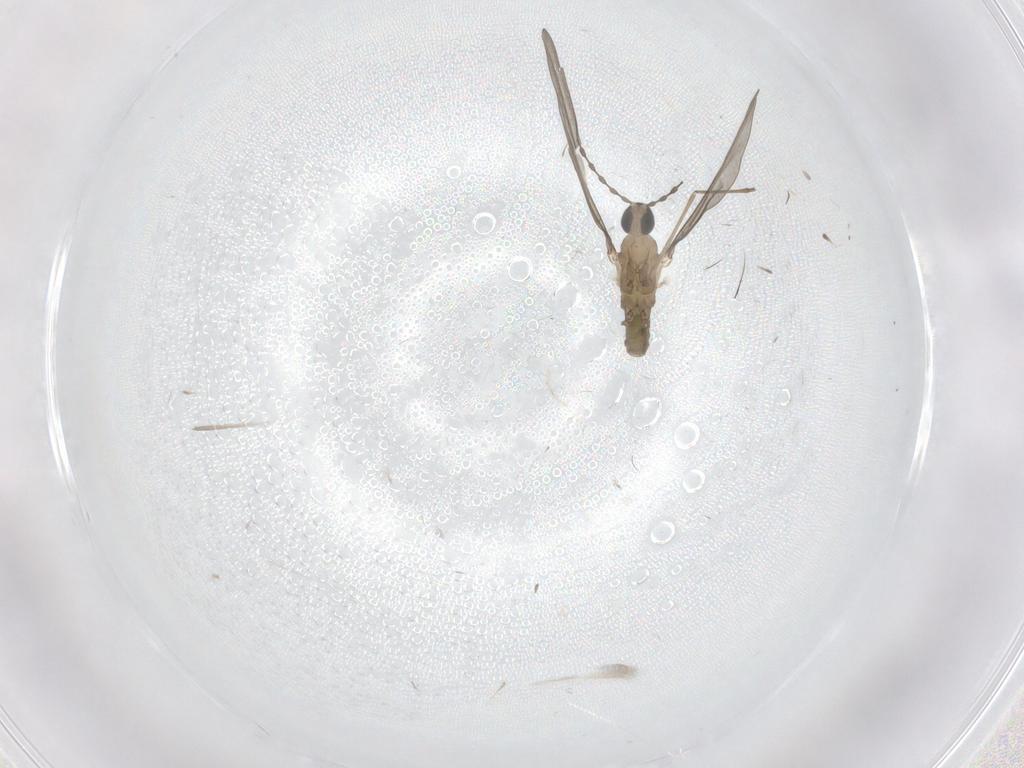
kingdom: Animalia
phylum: Arthropoda
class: Insecta
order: Diptera
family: Cecidomyiidae
